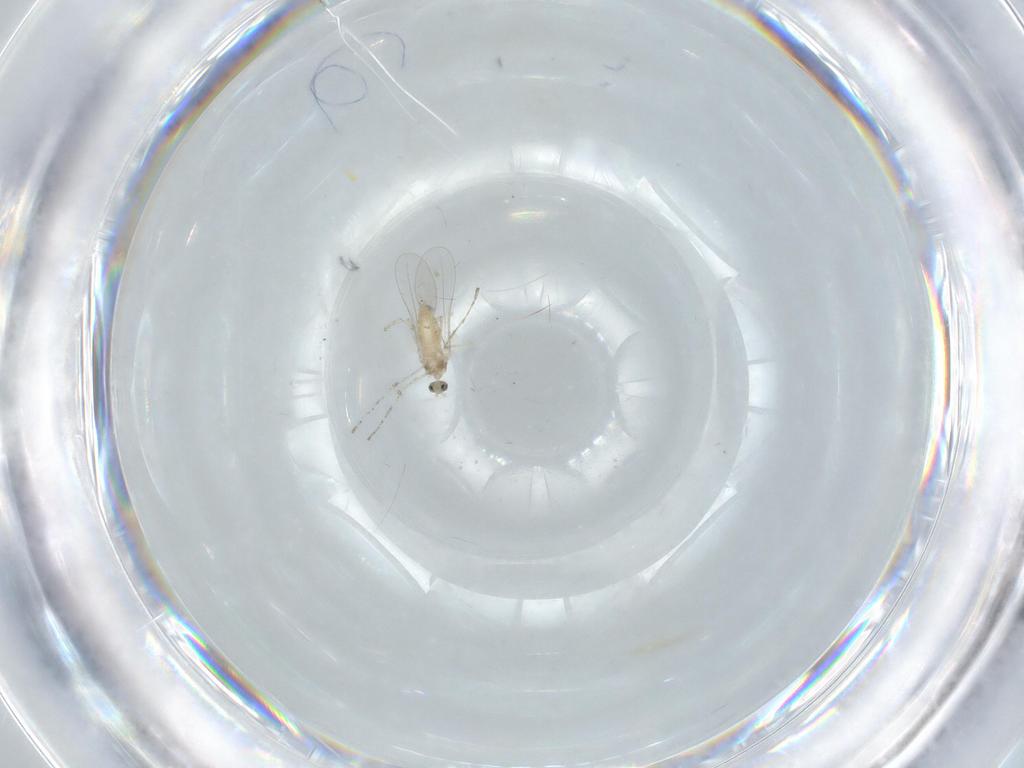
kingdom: Animalia
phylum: Arthropoda
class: Insecta
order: Diptera
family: Cecidomyiidae
